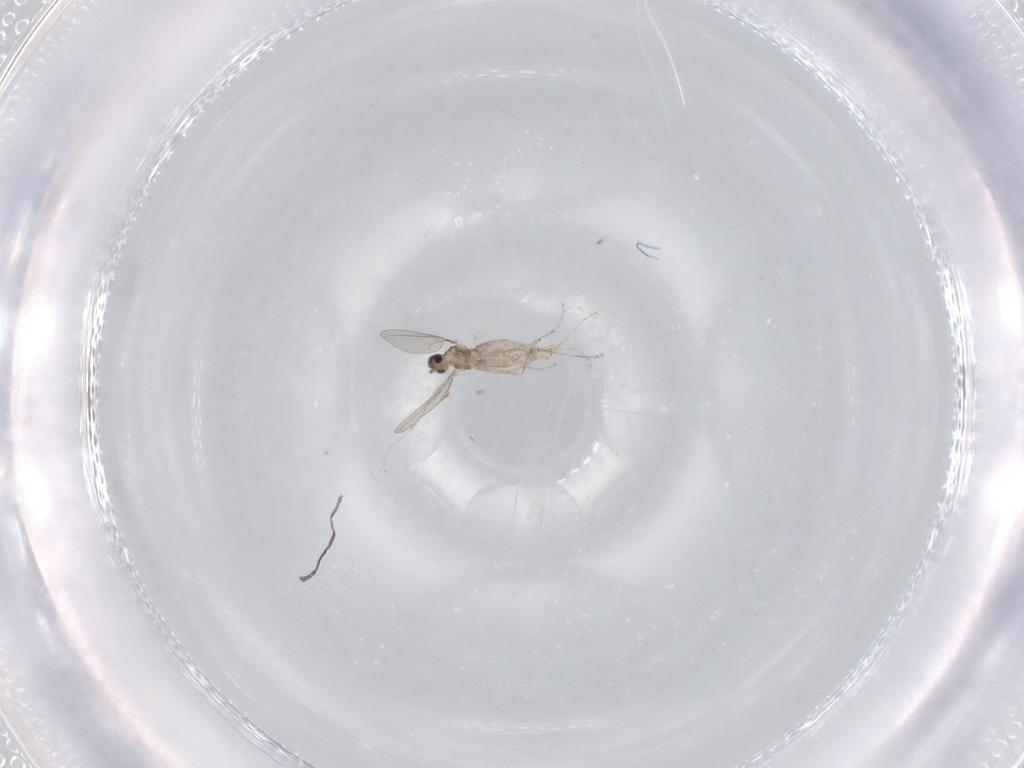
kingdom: Animalia
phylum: Arthropoda
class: Insecta
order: Diptera
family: Cecidomyiidae
